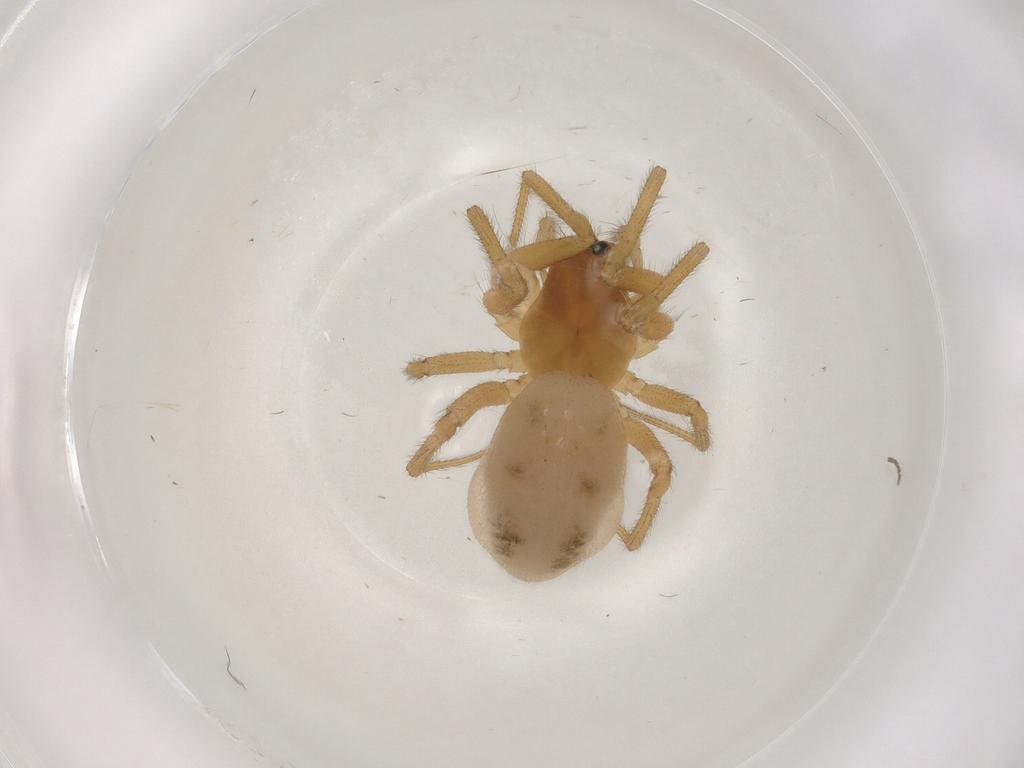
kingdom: Animalia
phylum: Arthropoda
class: Arachnida
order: Araneae
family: Linyphiidae
